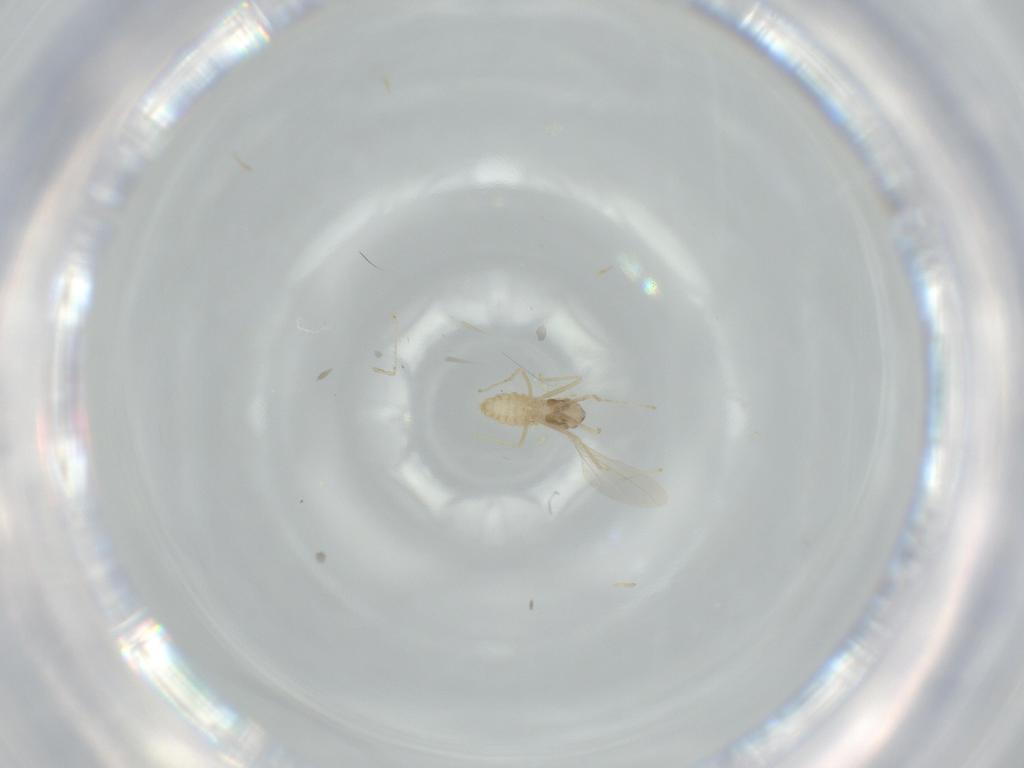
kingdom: Animalia
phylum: Arthropoda
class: Insecta
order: Diptera
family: Cecidomyiidae
